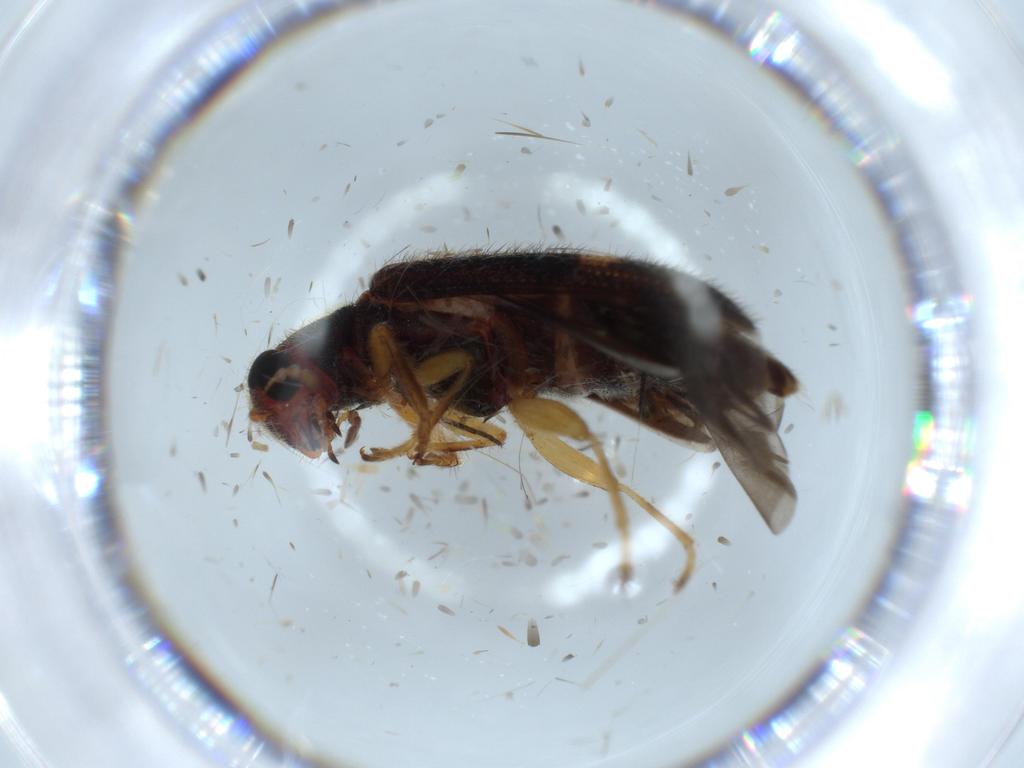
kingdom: Animalia
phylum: Arthropoda
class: Insecta
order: Coleoptera
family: Cleridae
